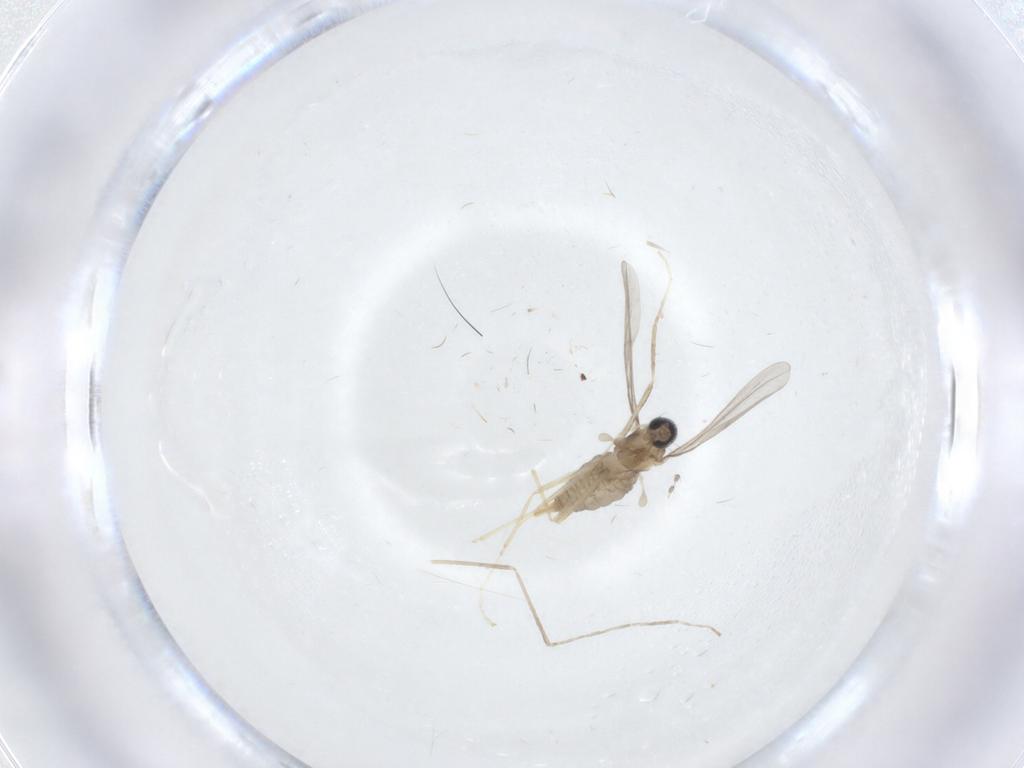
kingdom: Animalia
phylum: Arthropoda
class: Insecta
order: Diptera
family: Cecidomyiidae
